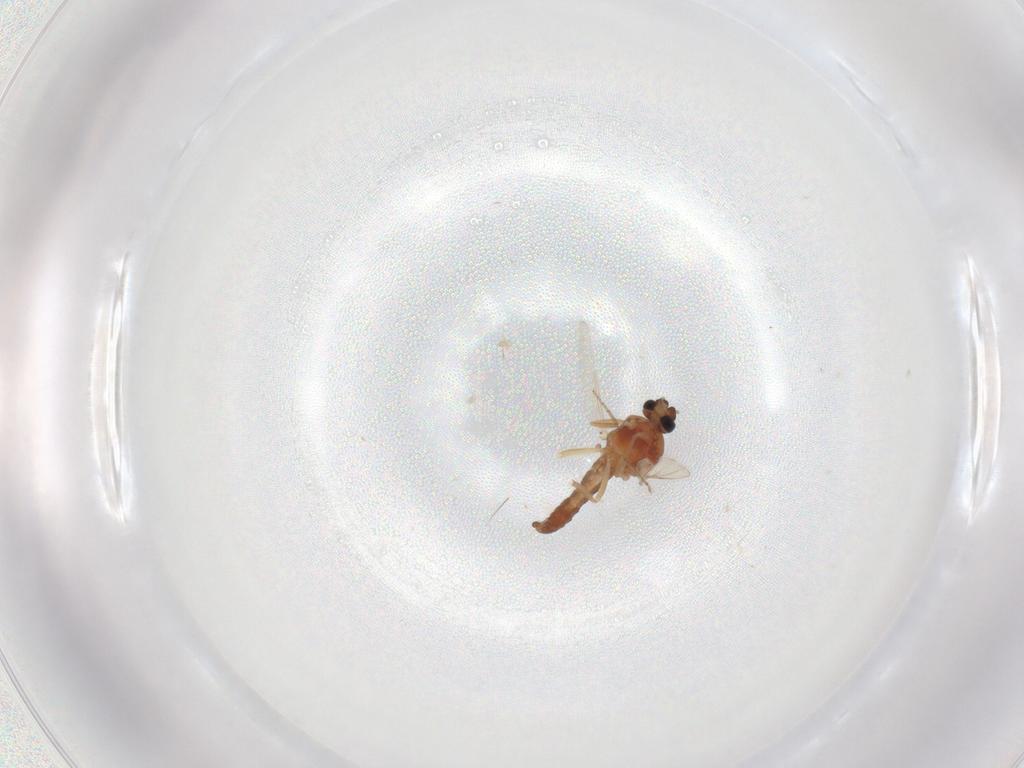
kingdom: Animalia
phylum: Arthropoda
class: Insecta
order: Diptera
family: Ceratopogonidae
